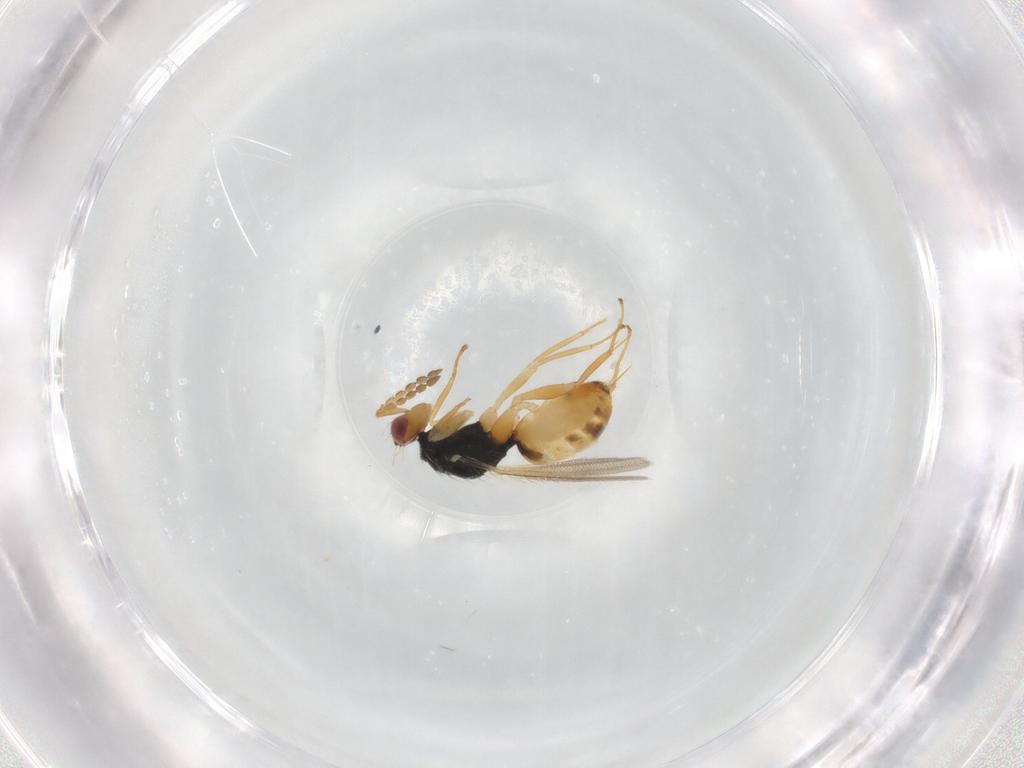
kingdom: Animalia
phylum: Arthropoda
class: Insecta
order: Hymenoptera
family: Eulophidae
